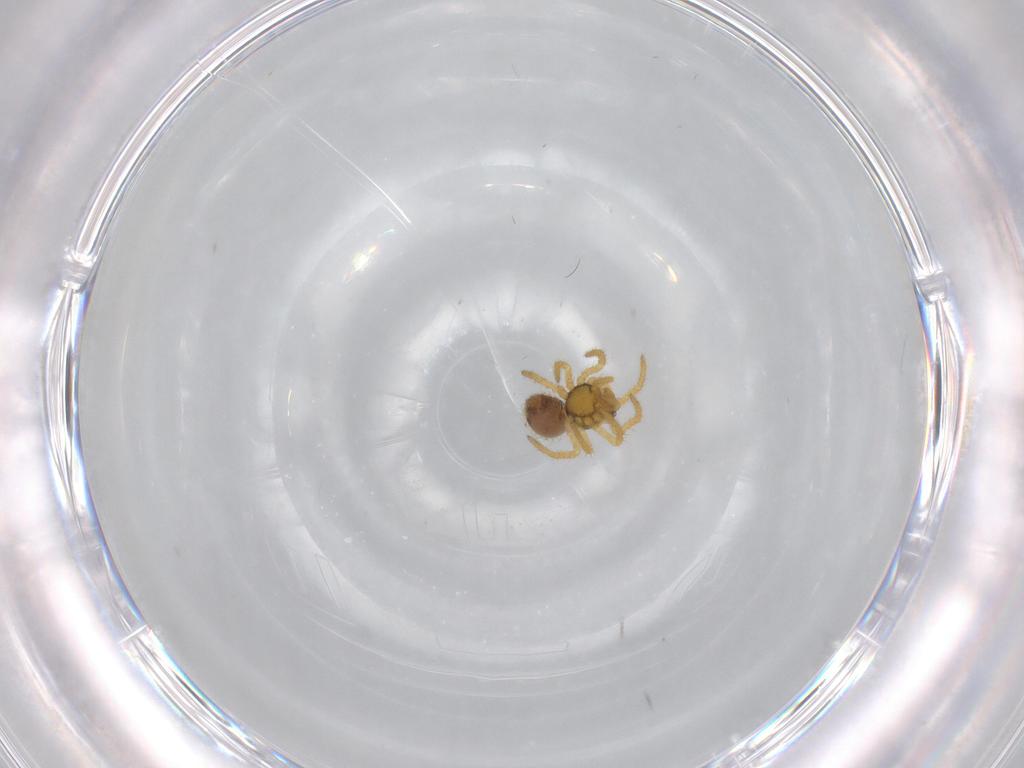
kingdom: Animalia
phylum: Arthropoda
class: Arachnida
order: Araneae
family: Theridiidae
